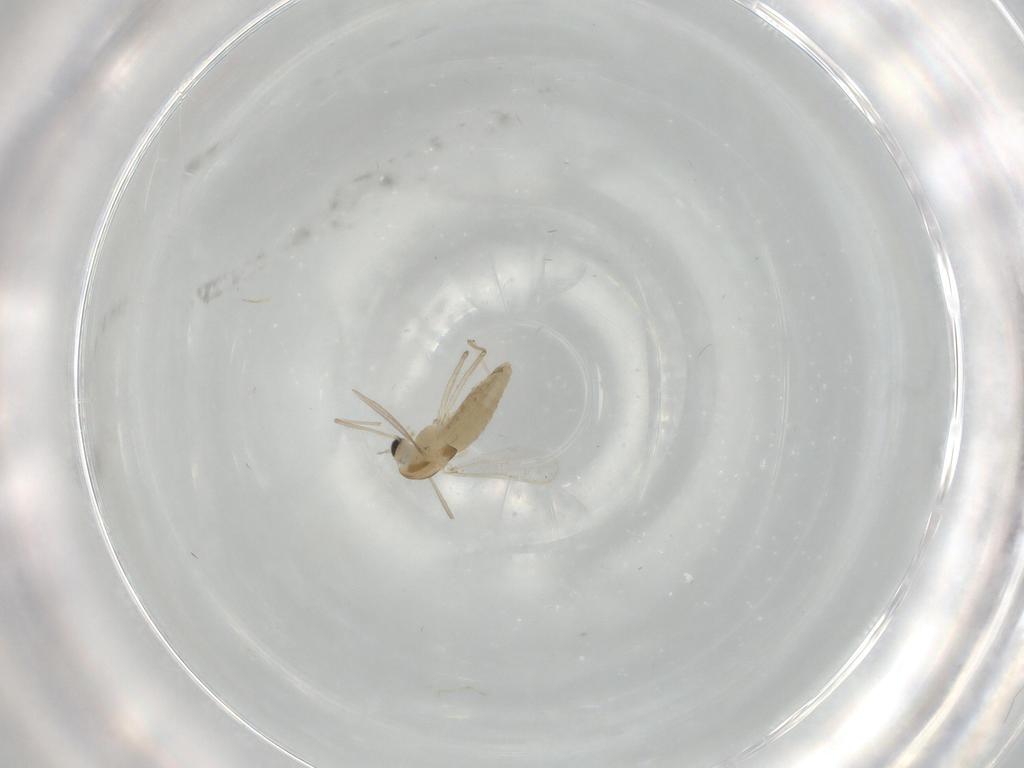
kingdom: Animalia
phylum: Arthropoda
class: Insecta
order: Diptera
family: Chironomidae
